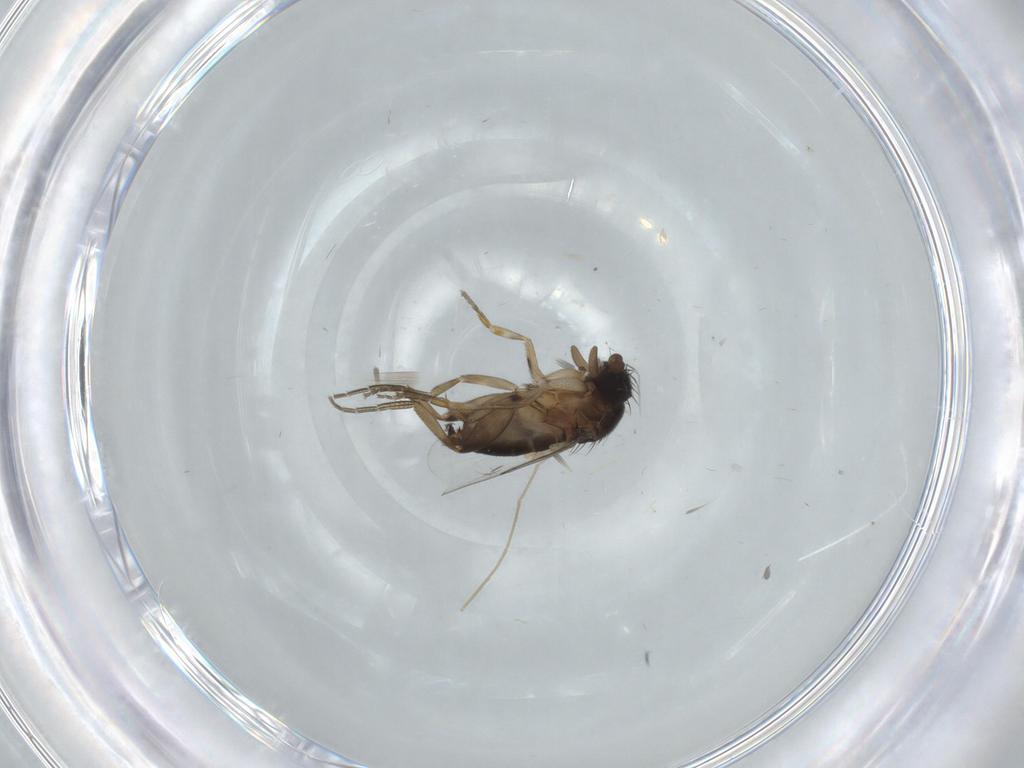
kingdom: Animalia
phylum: Arthropoda
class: Insecta
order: Diptera
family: Phoridae
